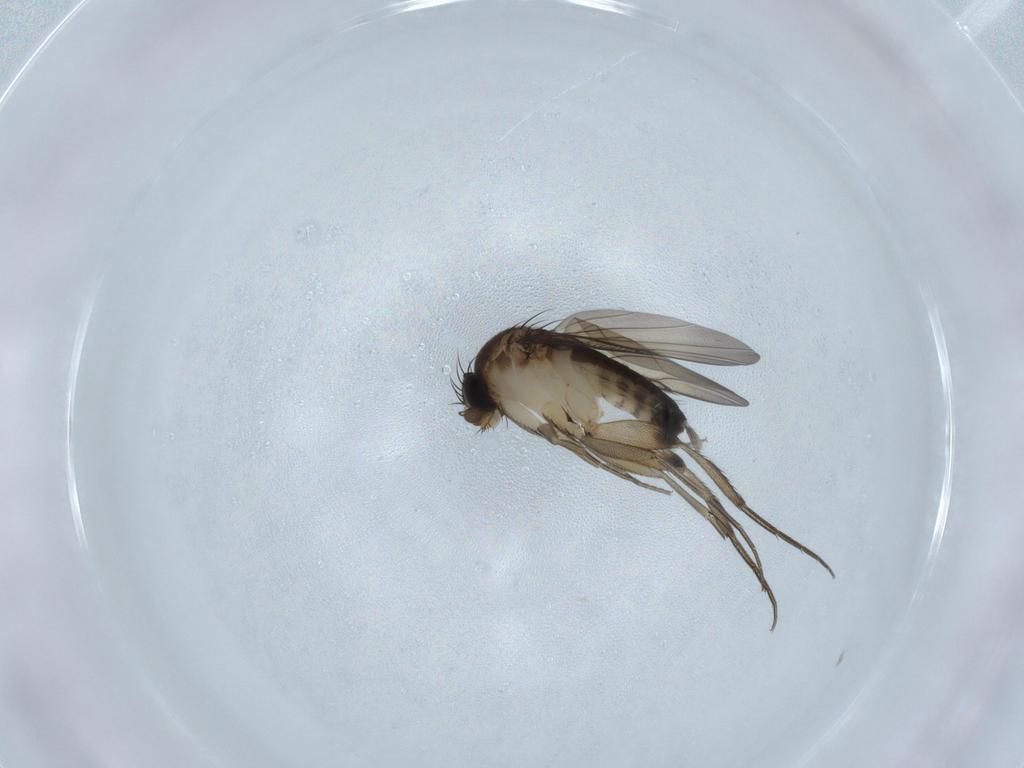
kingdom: Animalia
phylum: Arthropoda
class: Insecta
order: Diptera
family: Phoridae
